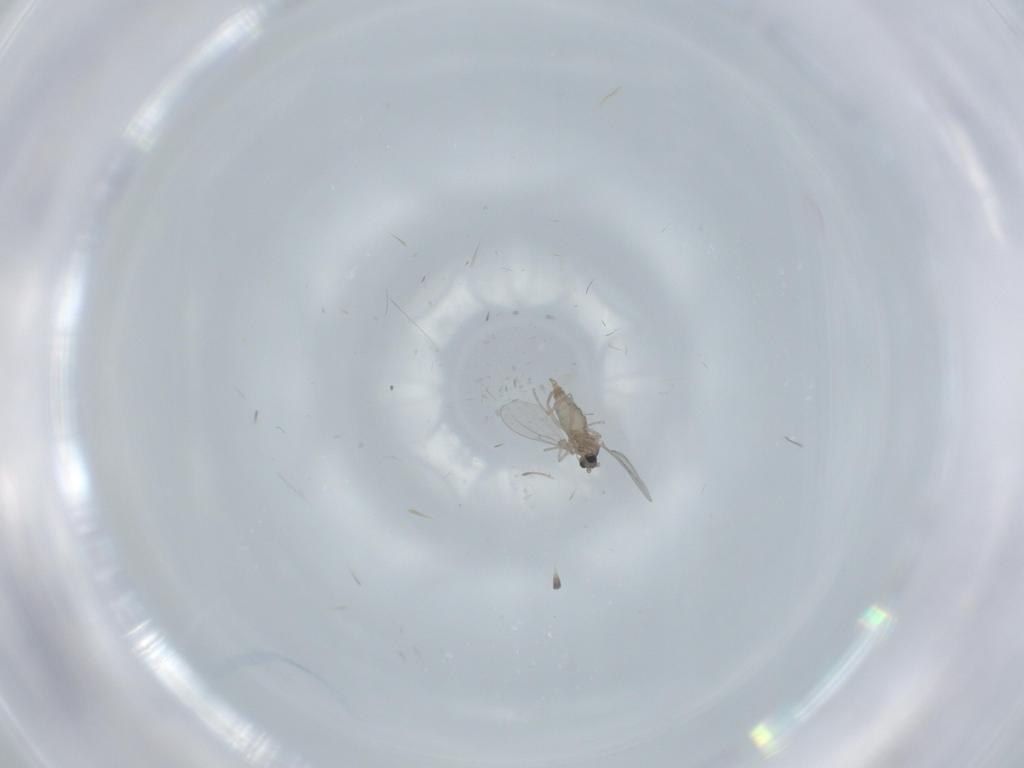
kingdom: Animalia
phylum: Arthropoda
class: Insecta
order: Diptera
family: Cecidomyiidae
